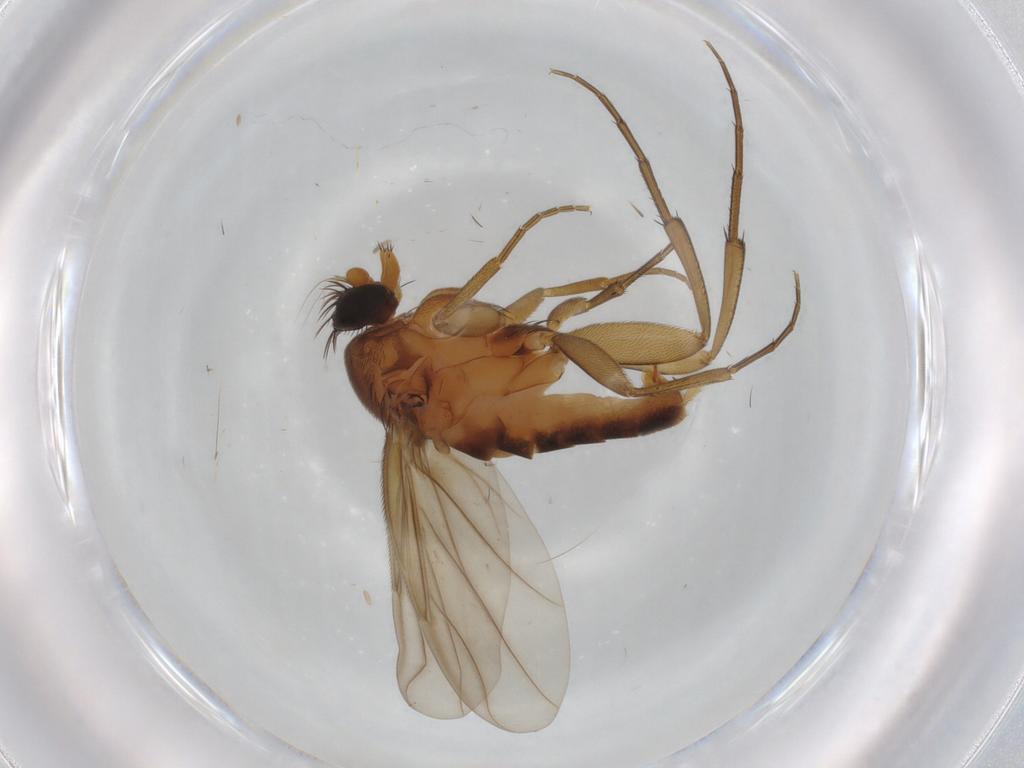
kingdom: Animalia
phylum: Arthropoda
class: Insecta
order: Diptera
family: Phoridae
